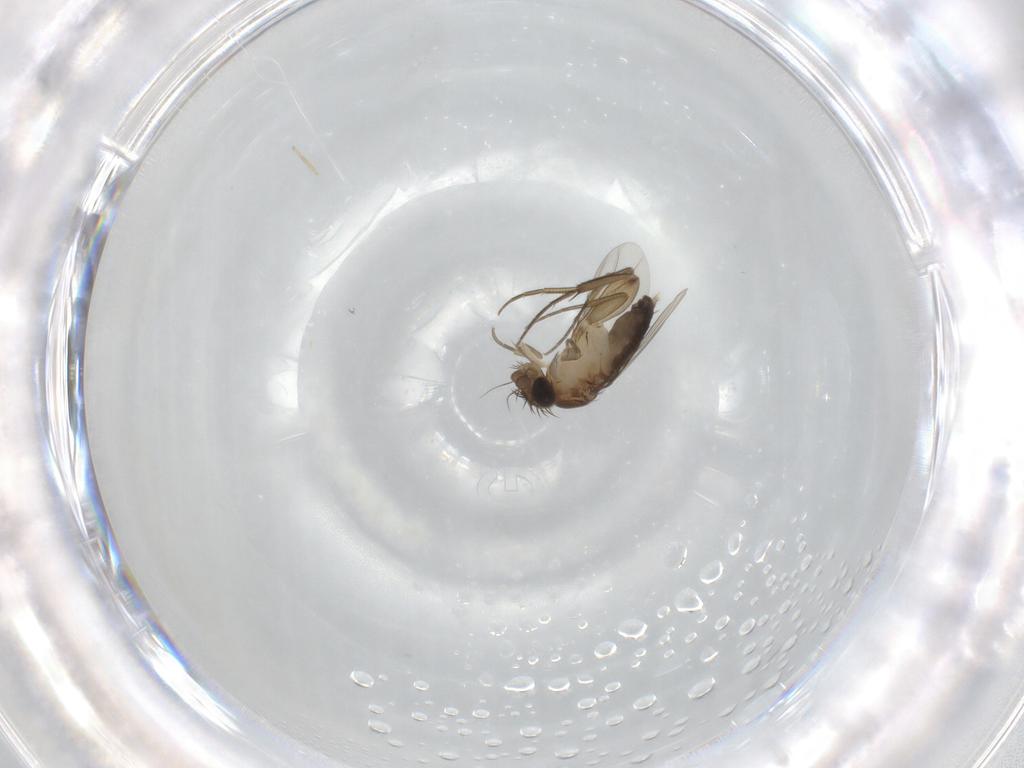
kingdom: Animalia
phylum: Arthropoda
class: Insecta
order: Diptera
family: Phoridae
